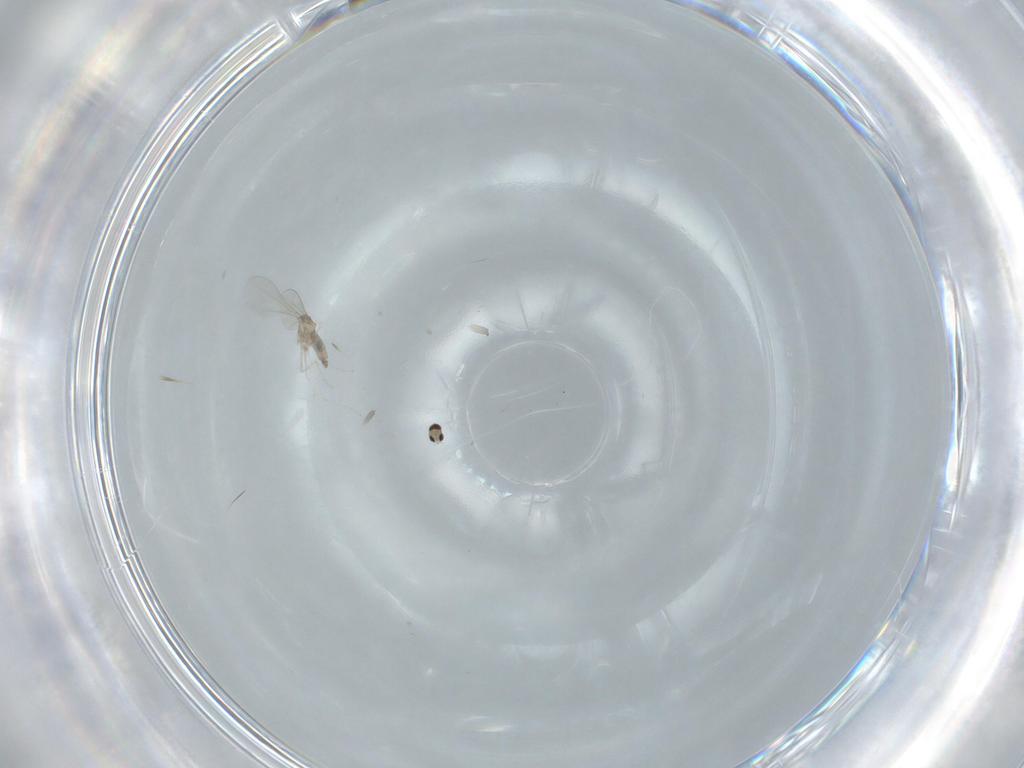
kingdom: Animalia
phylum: Arthropoda
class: Insecta
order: Diptera
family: Cecidomyiidae
